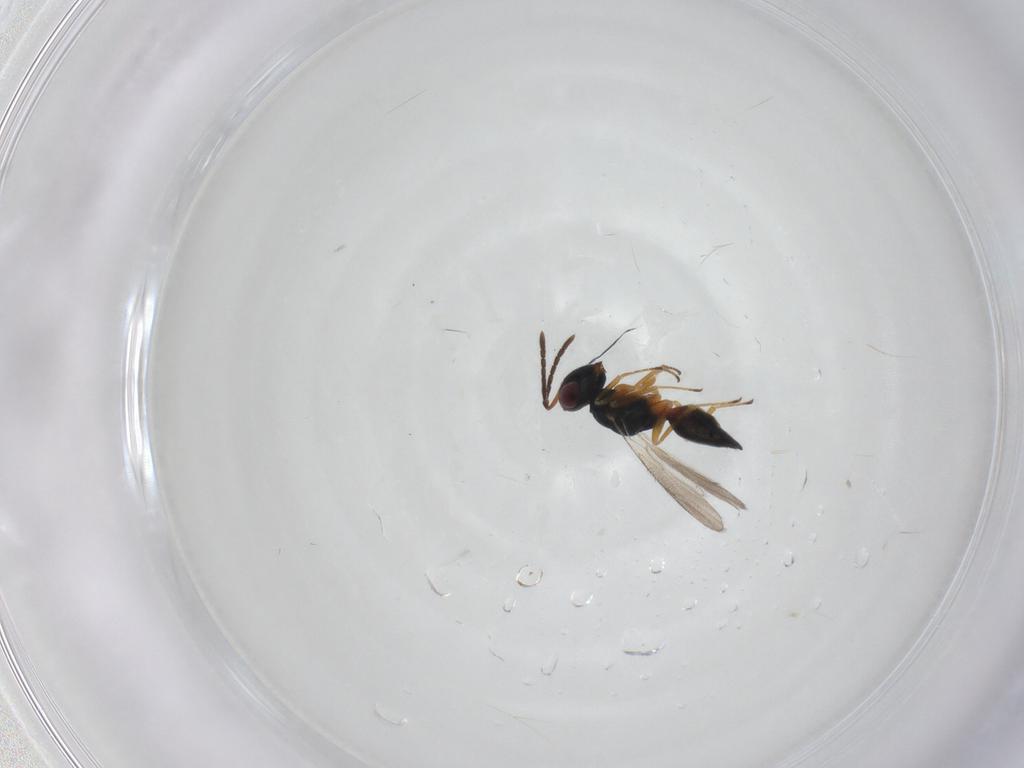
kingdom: Animalia
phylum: Arthropoda
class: Insecta
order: Hymenoptera
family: Pteromalidae
